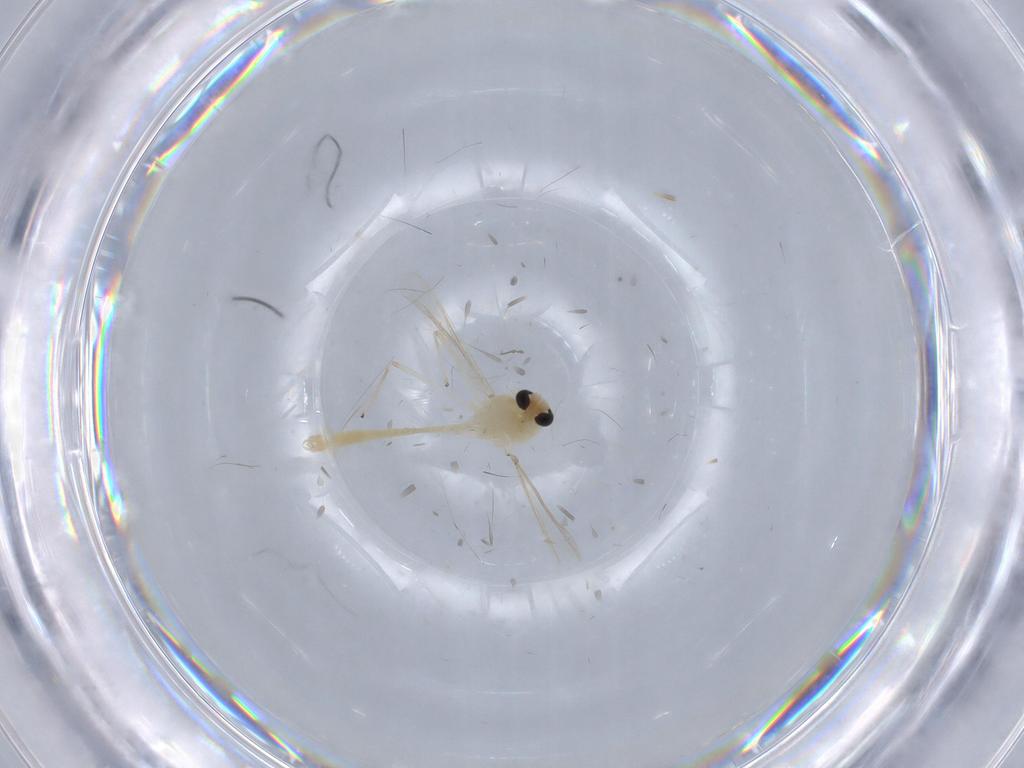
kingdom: Animalia
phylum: Arthropoda
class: Insecta
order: Diptera
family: Chironomidae
